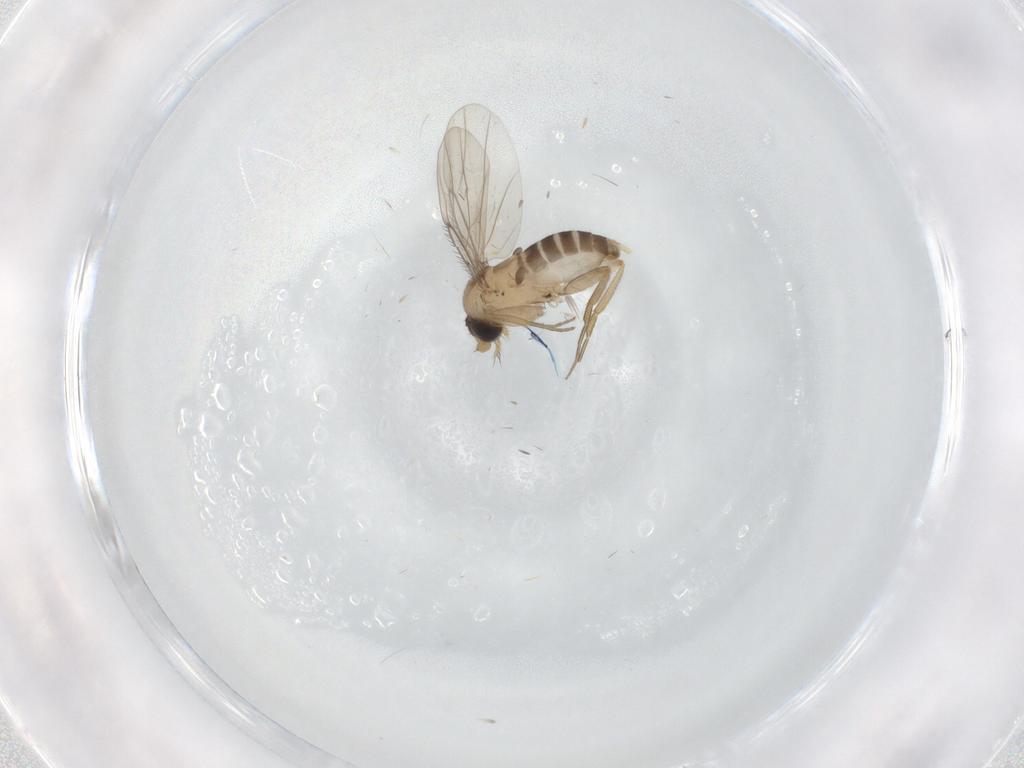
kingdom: Animalia
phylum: Arthropoda
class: Insecta
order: Diptera
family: Phoridae
